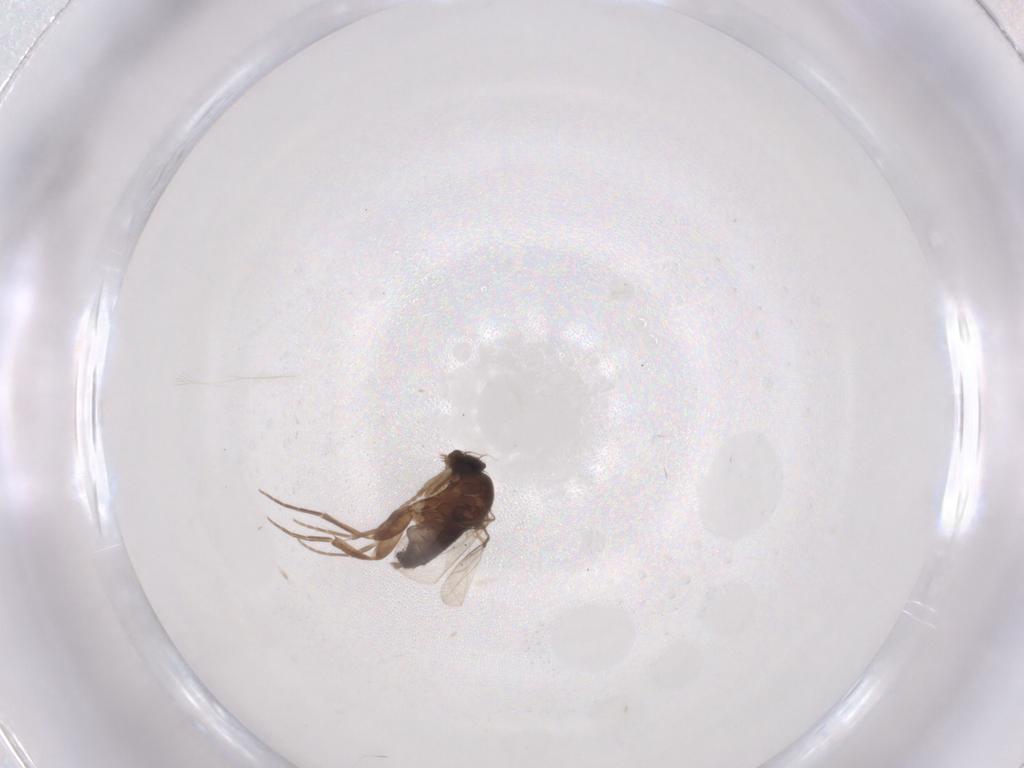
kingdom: Animalia
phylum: Arthropoda
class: Insecta
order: Diptera
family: Phoridae
